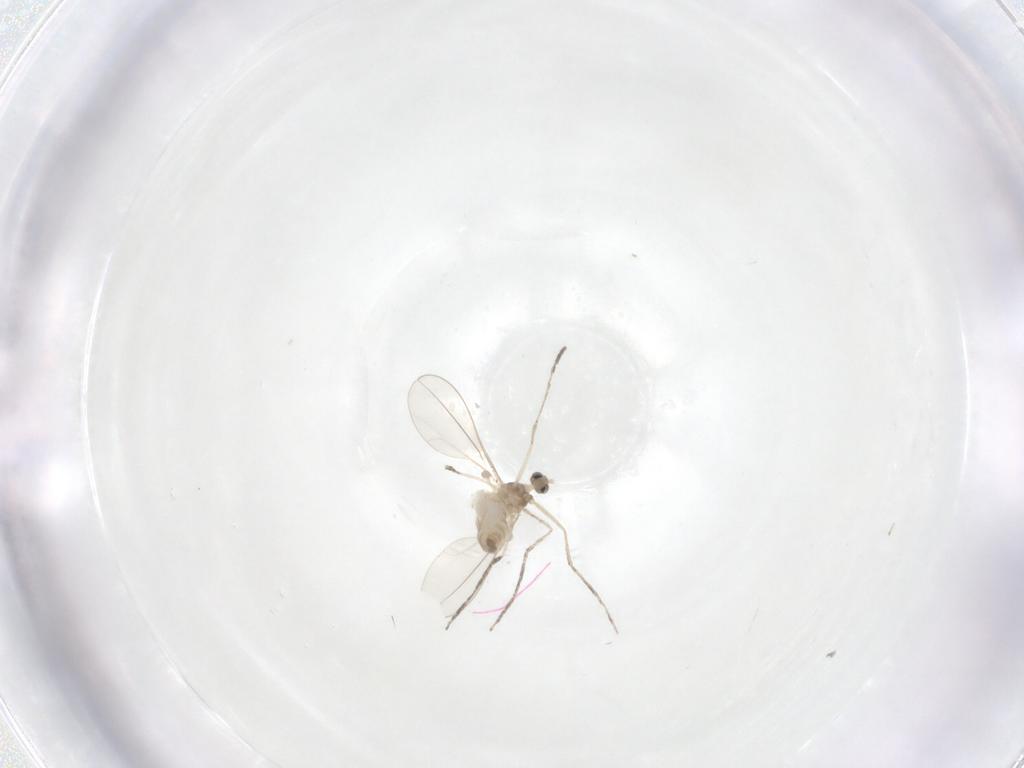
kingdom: Animalia
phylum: Arthropoda
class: Insecta
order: Diptera
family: Cecidomyiidae
